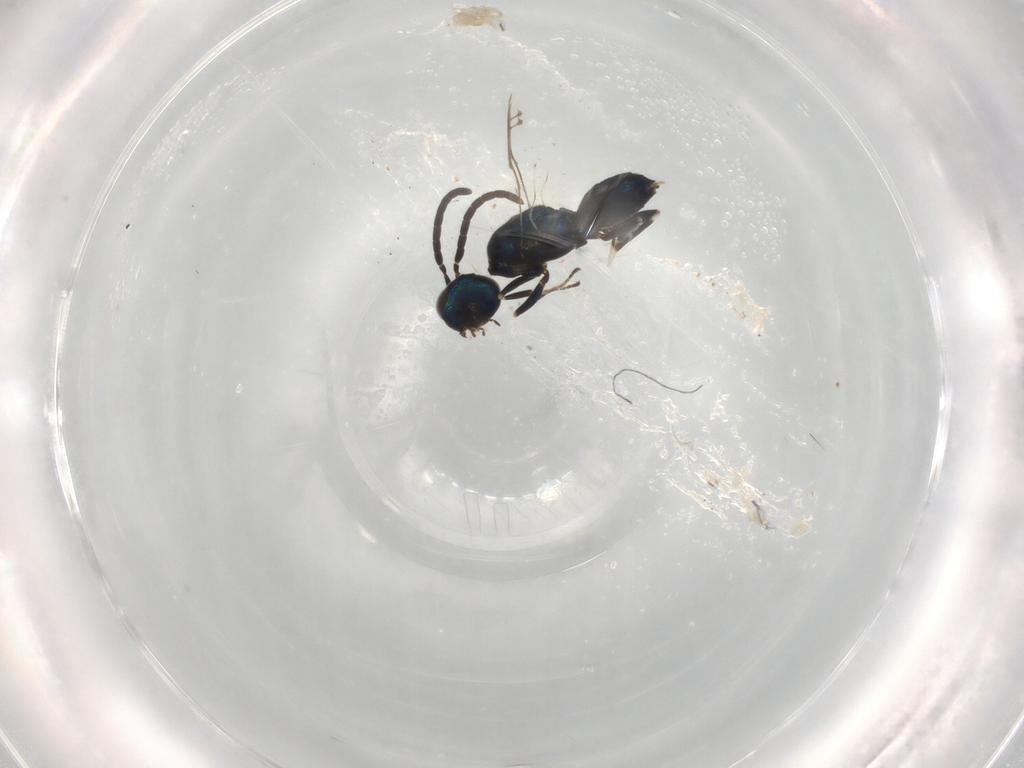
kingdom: Animalia
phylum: Arthropoda
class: Insecta
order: Hymenoptera
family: Eupelmidae
